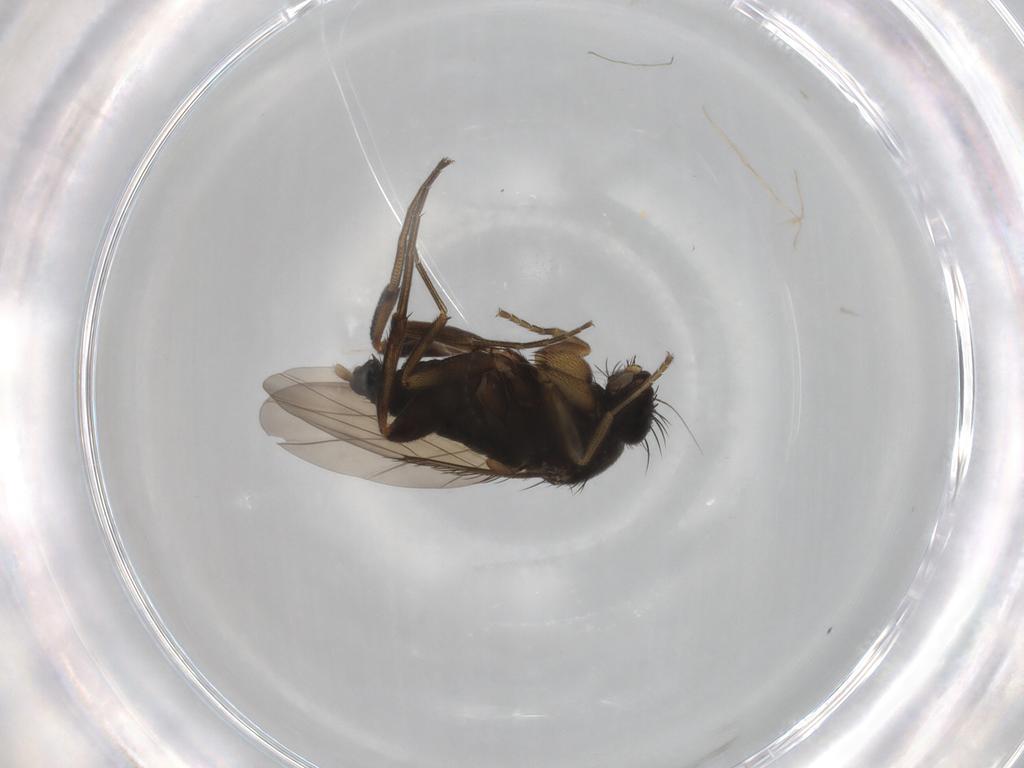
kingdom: Animalia
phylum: Arthropoda
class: Insecta
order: Diptera
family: Phoridae
